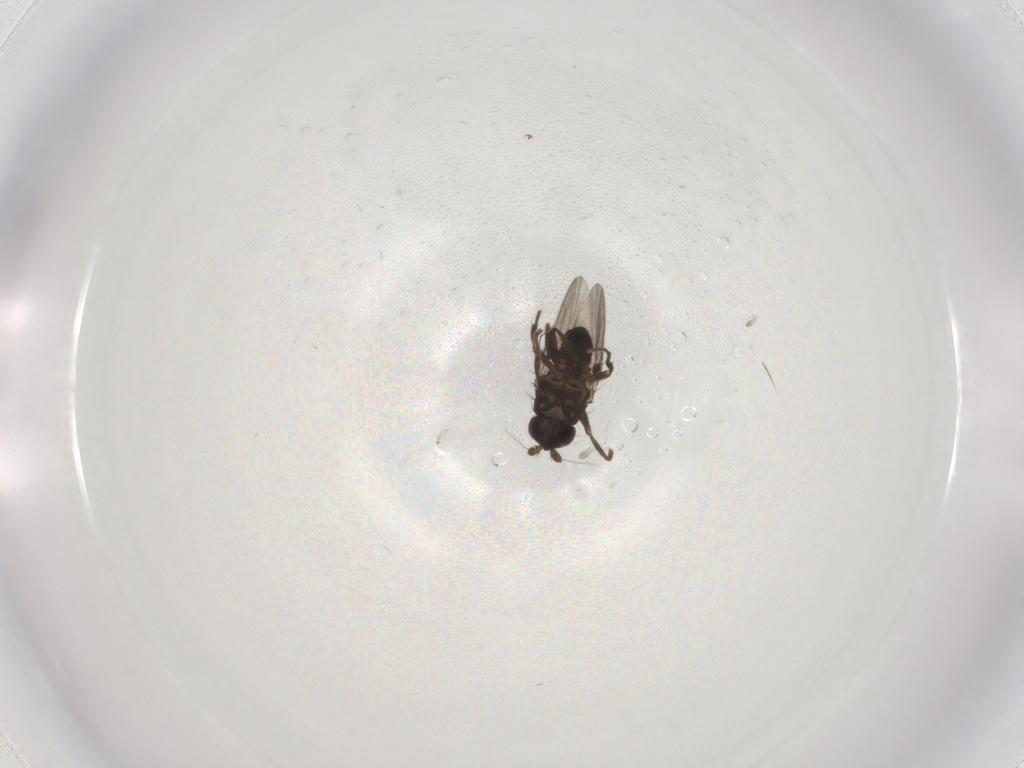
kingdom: Animalia
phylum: Arthropoda
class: Insecta
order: Diptera
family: Cecidomyiidae
